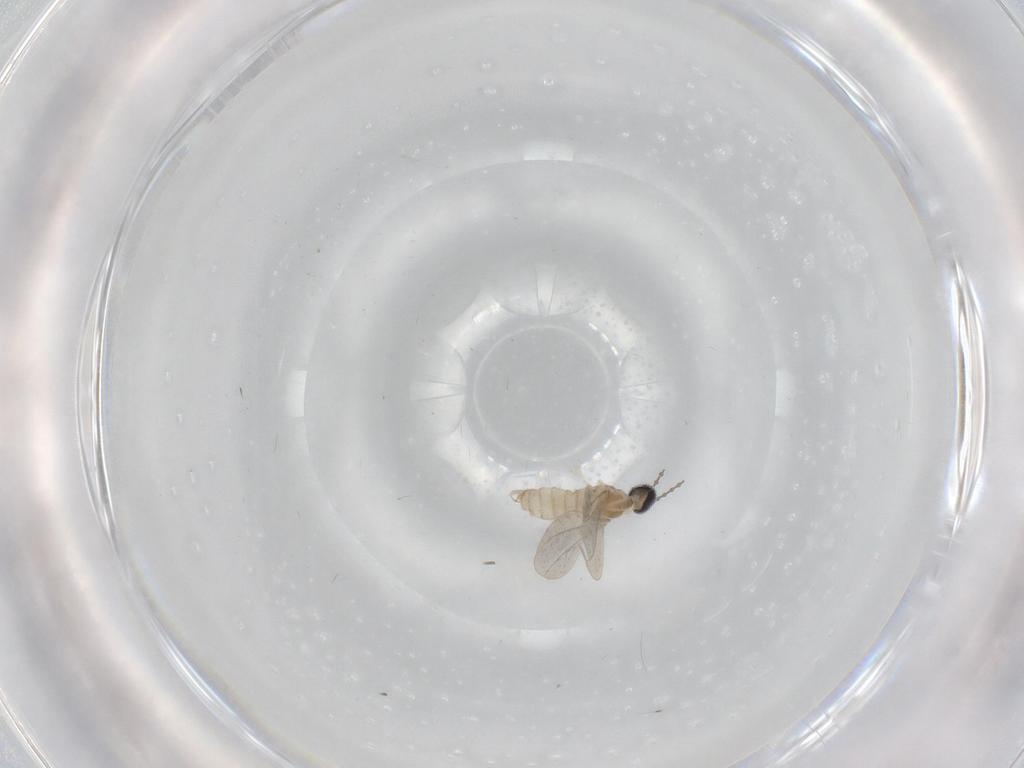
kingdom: Animalia
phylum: Arthropoda
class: Insecta
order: Diptera
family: Cecidomyiidae
